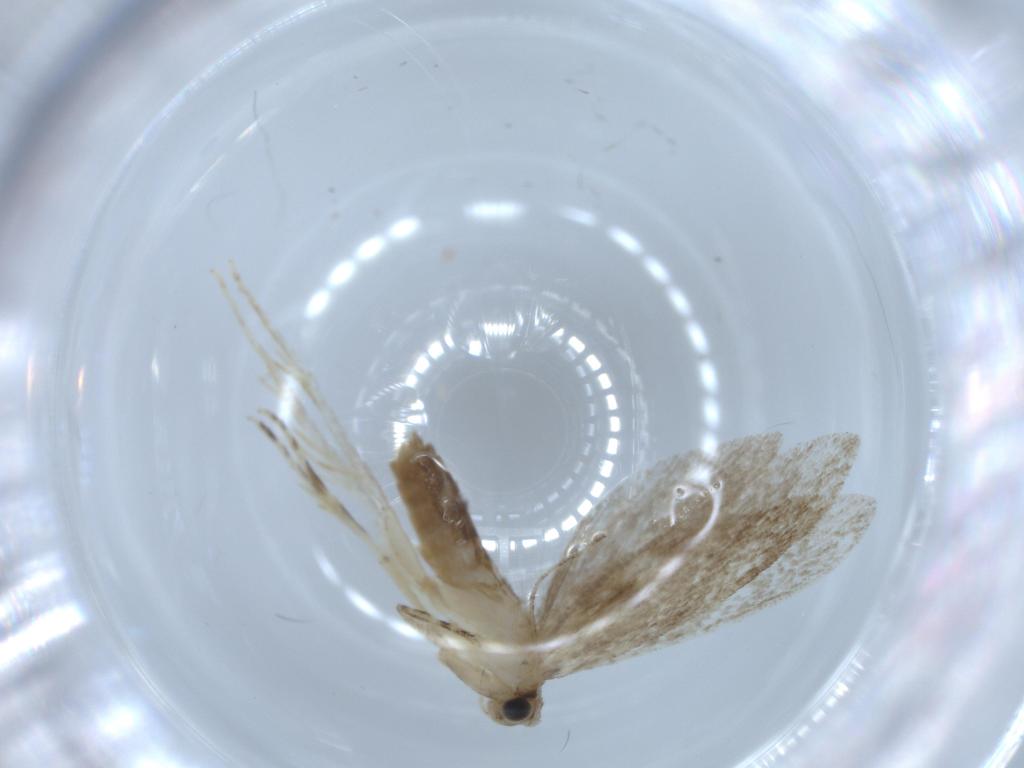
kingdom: Animalia
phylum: Arthropoda
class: Insecta
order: Lepidoptera
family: Tineidae
